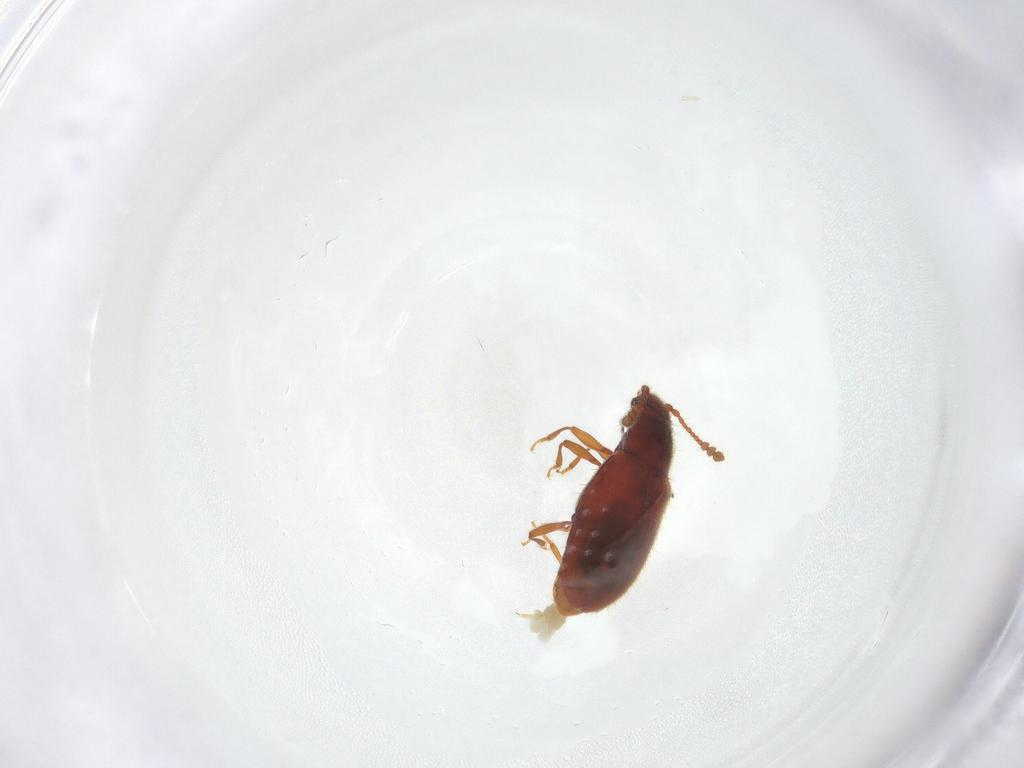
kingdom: Animalia
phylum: Arthropoda
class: Insecta
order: Coleoptera
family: Cryptophagidae
